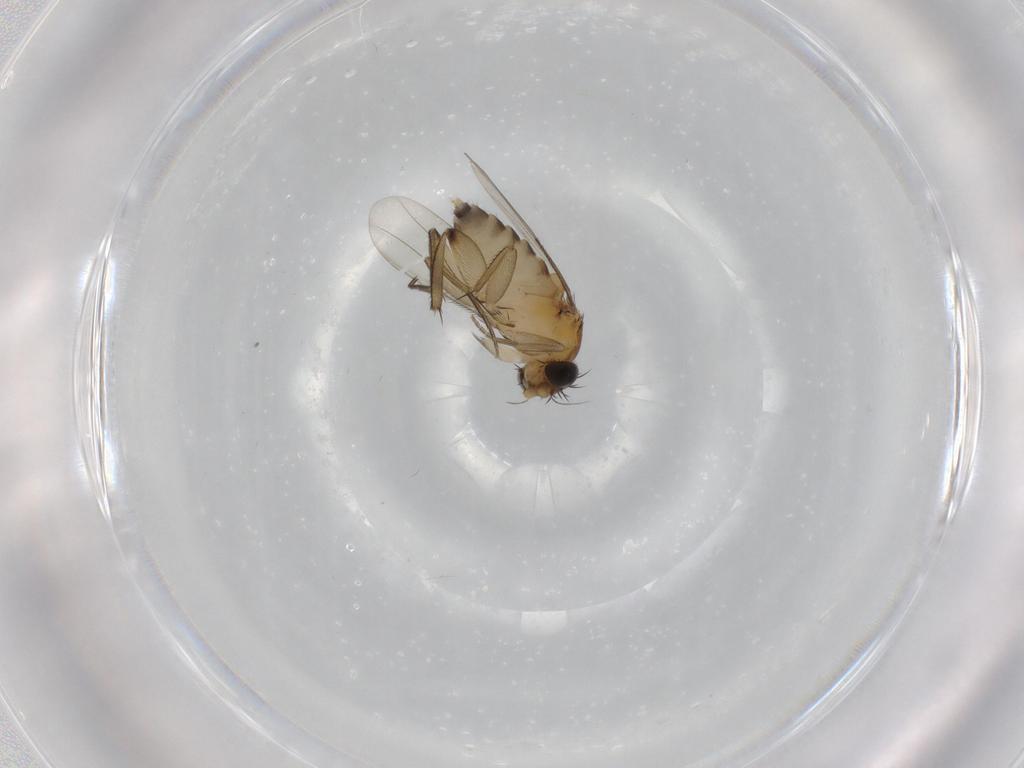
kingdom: Animalia
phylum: Arthropoda
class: Insecta
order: Diptera
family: Phoridae
